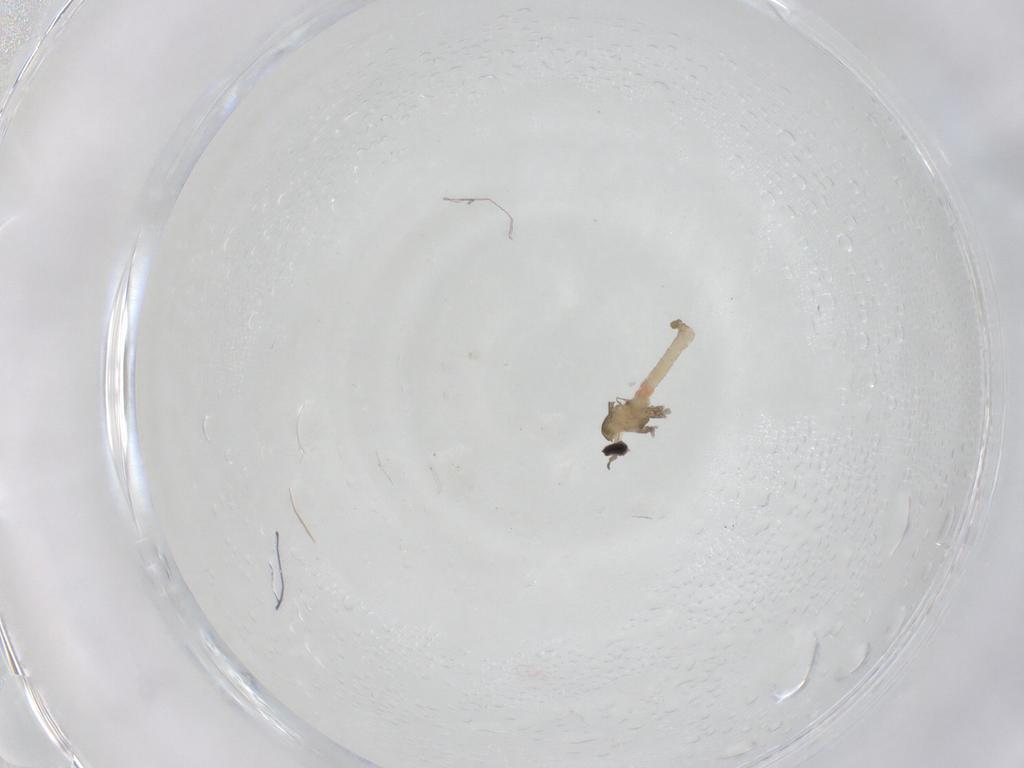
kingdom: Animalia
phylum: Arthropoda
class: Insecta
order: Diptera
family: Cecidomyiidae
